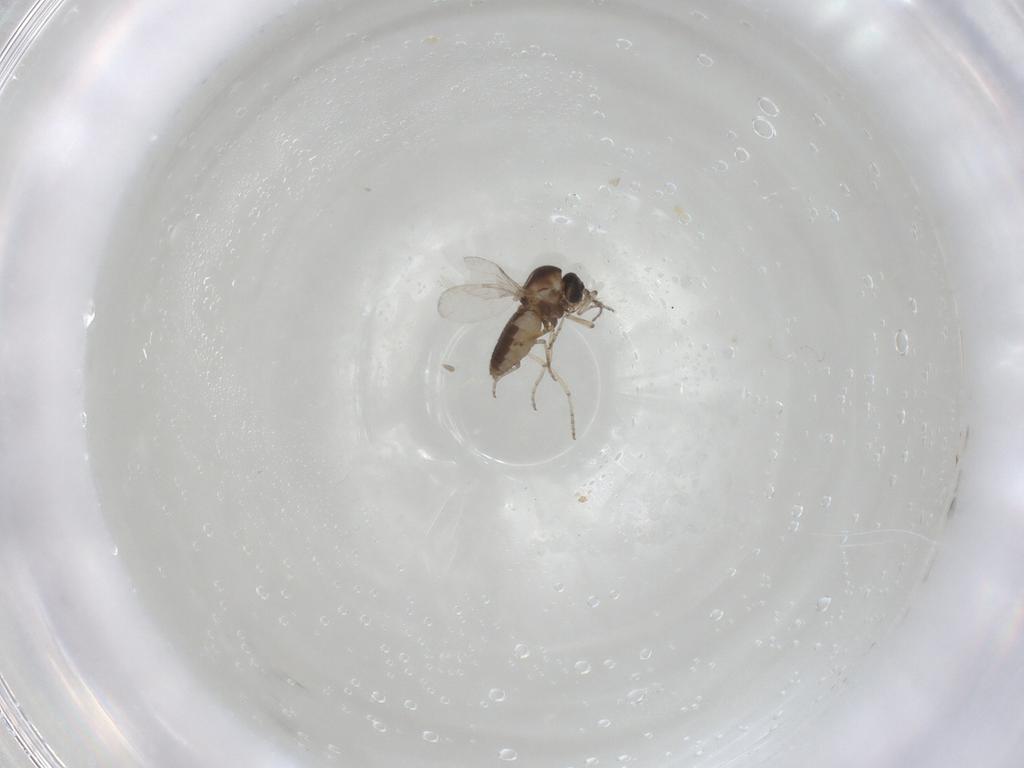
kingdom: Animalia
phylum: Arthropoda
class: Insecta
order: Diptera
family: Ceratopogonidae
